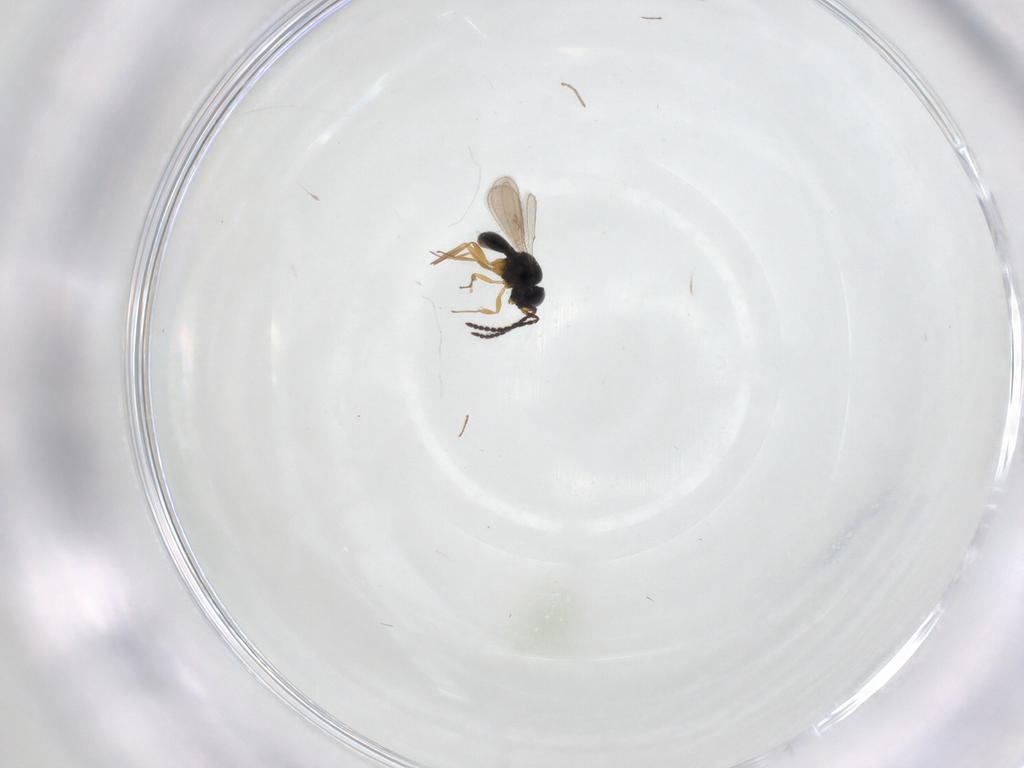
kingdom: Animalia
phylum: Arthropoda
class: Insecta
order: Hymenoptera
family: Scelionidae
